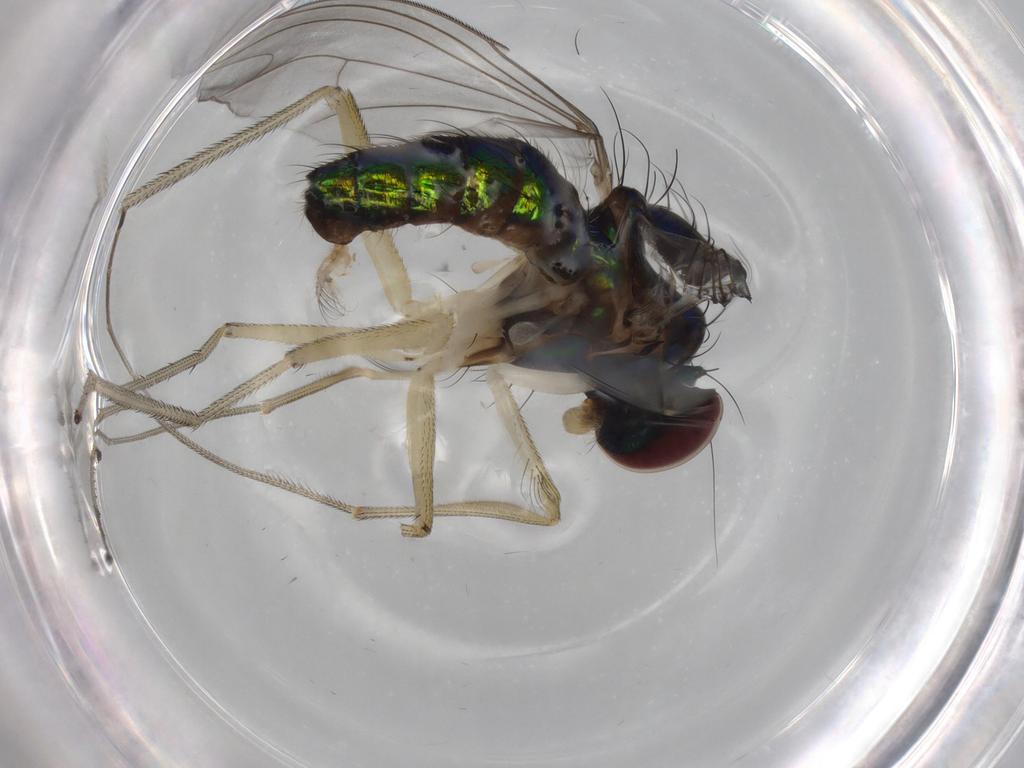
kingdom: Animalia
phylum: Arthropoda
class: Insecta
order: Diptera
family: Dolichopodidae
